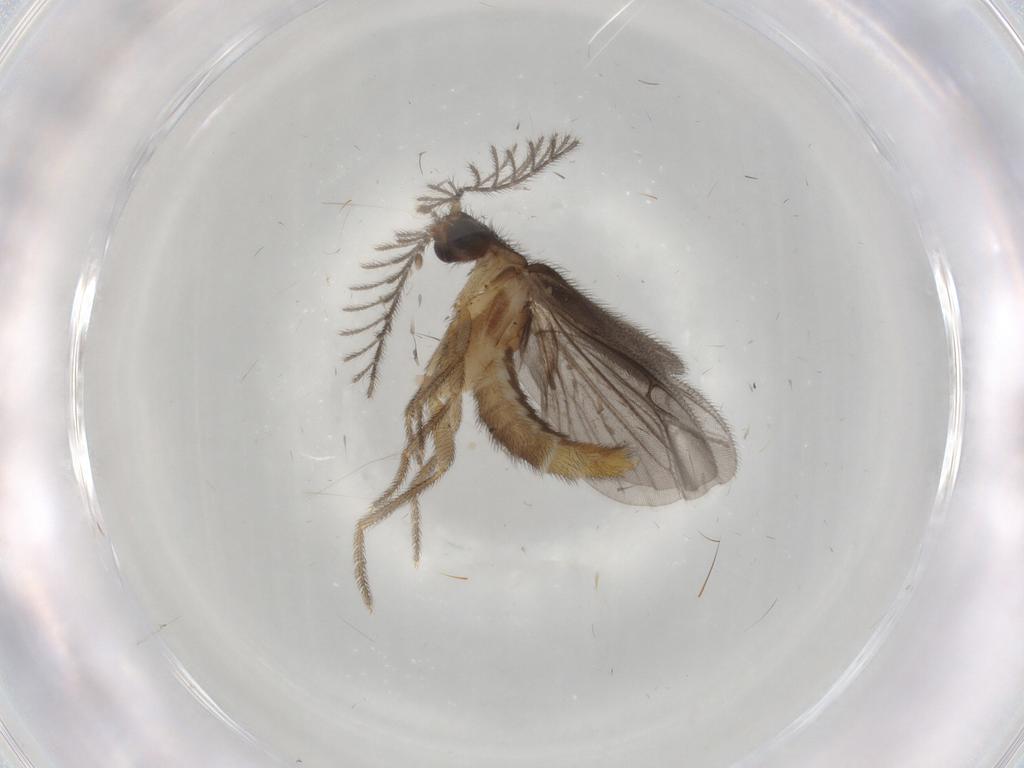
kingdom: Animalia
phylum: Arthropoda
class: Insecta
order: Coleoptera
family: Phengodidae
